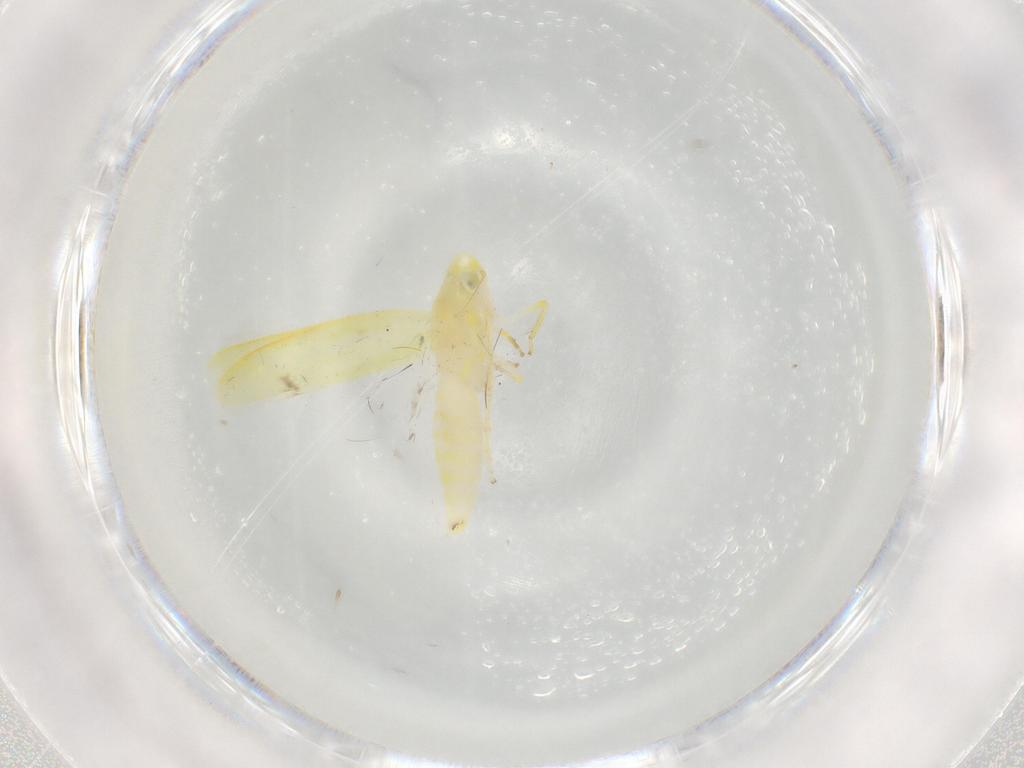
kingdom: Animalia
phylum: Arthropoda
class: Insecta
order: Hemiptera
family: Cicadellidae
